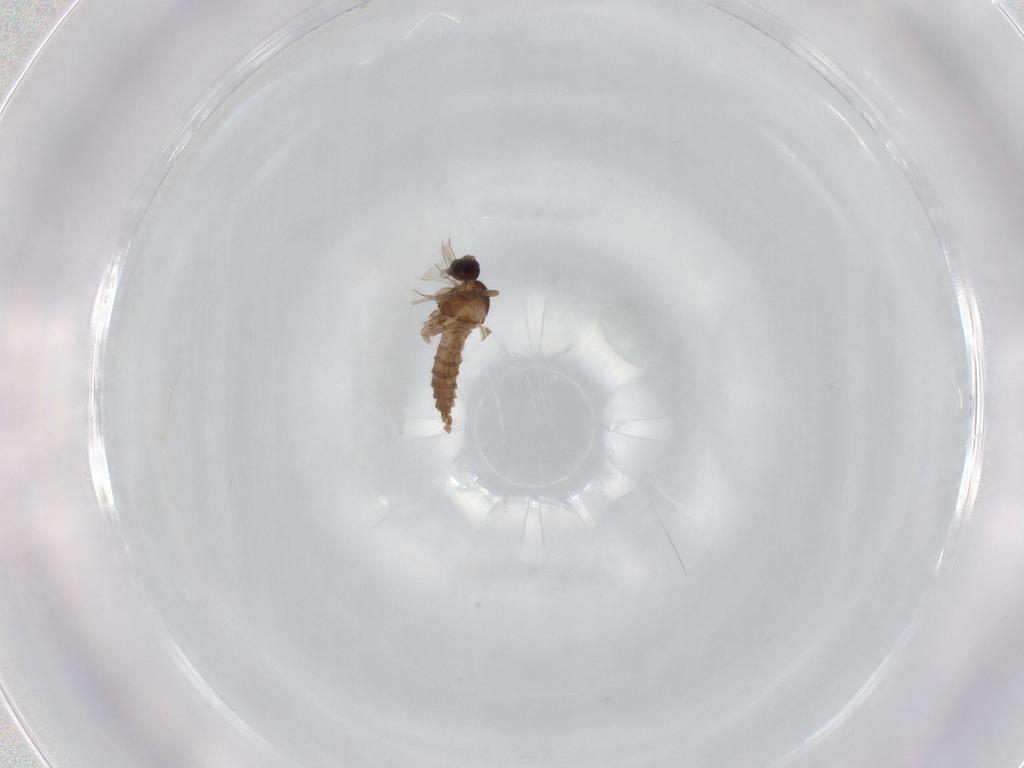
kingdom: Animalia
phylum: Arthropoda
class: Insecta
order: Diptera
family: Cecidomyiidae
